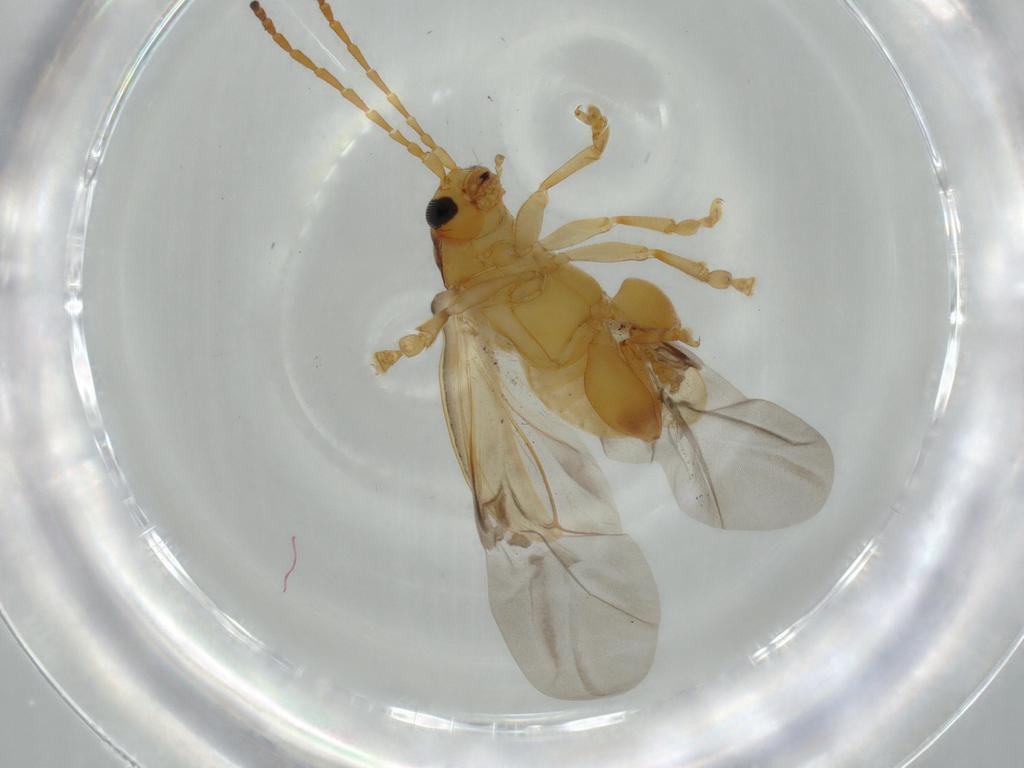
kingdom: Animalia
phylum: Arthropoda
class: Insecta
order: Coleoptera
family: Chrysomelidae
